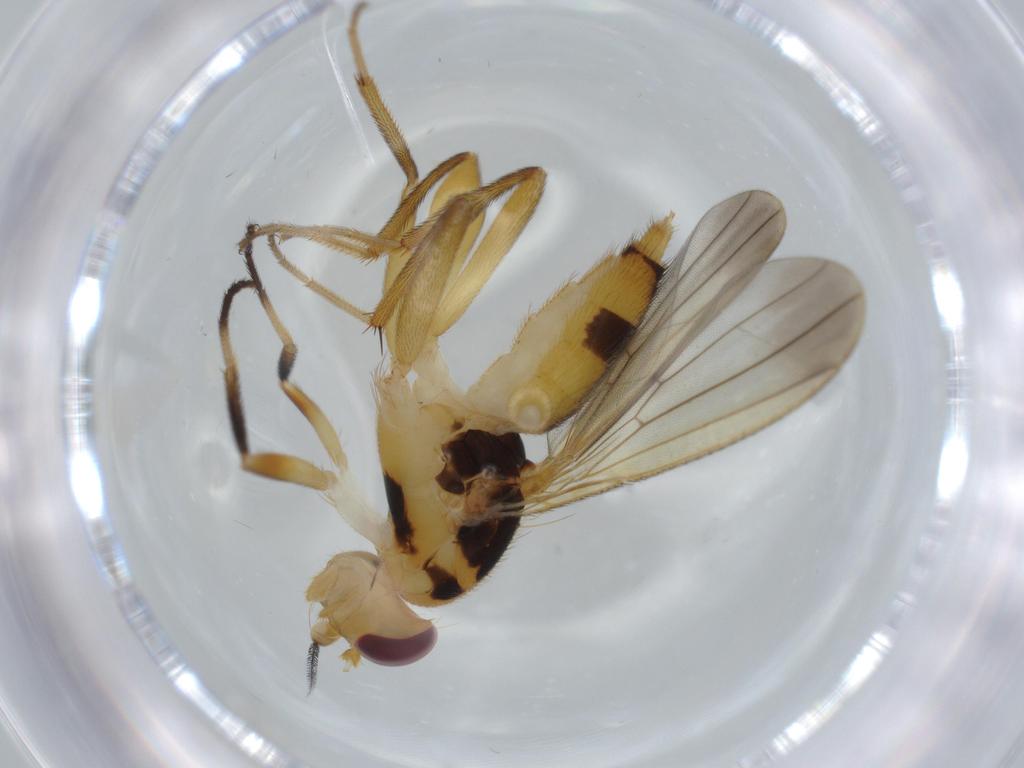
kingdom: Animalia
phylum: Arthropoda
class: Insecta
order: Diptera
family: Clusiidae
